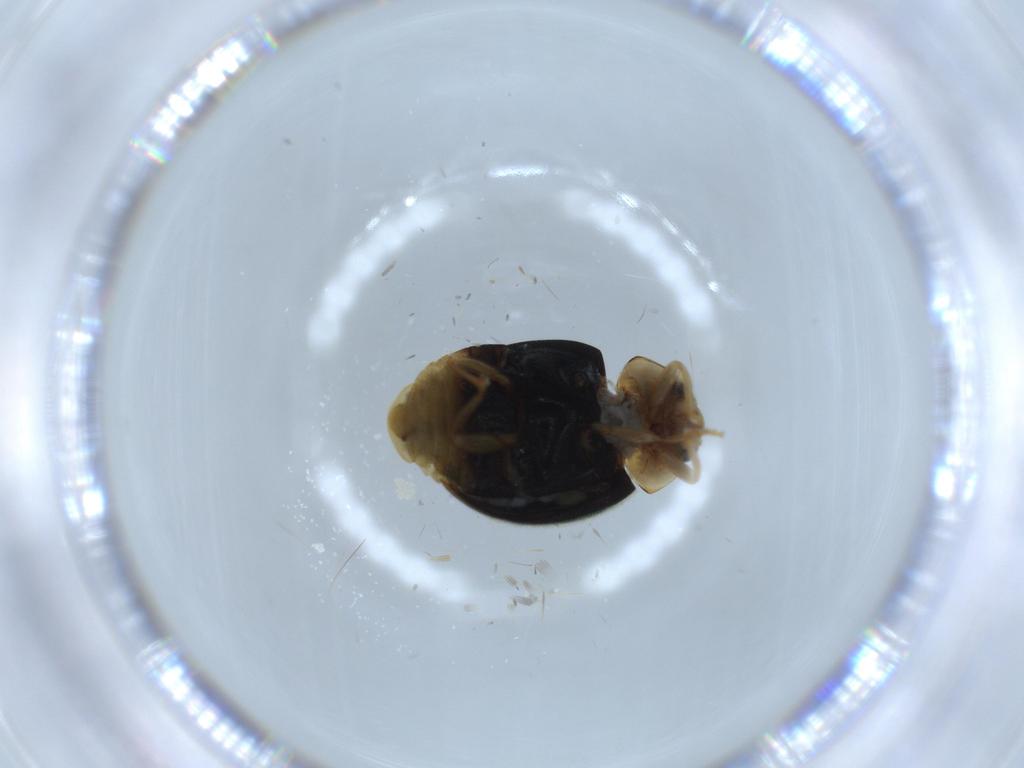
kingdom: Animalia
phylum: Arthropoda
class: Insecta
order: Coleoptera
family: Coccinellidae
